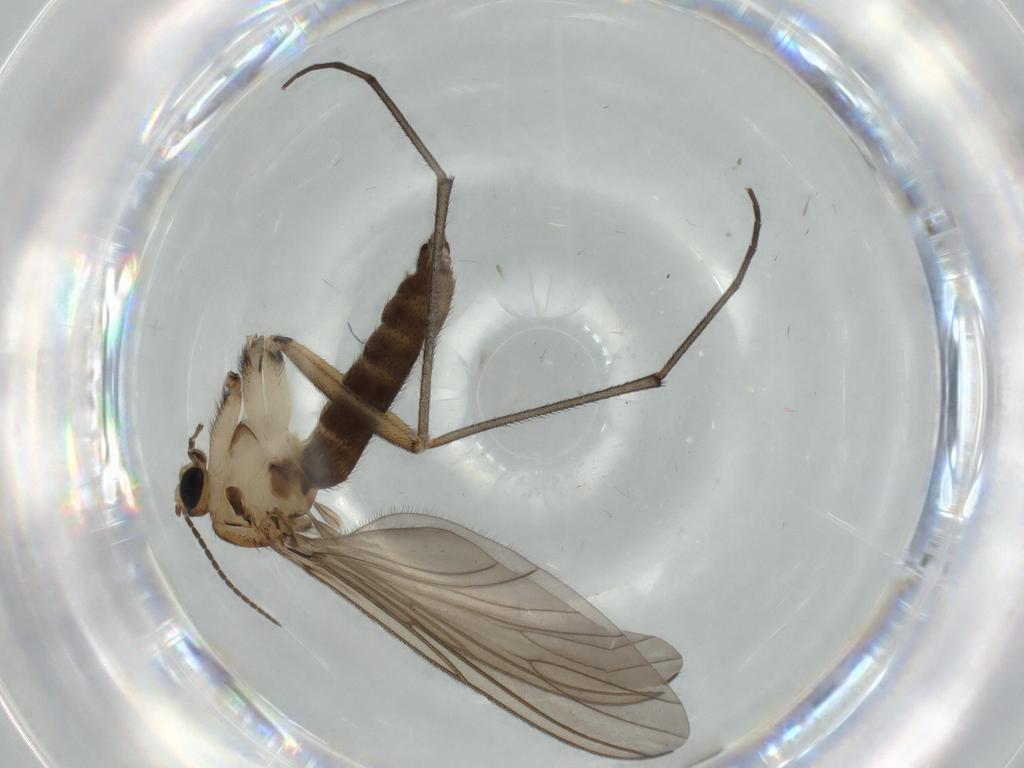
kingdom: Animalia
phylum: Arthropoda
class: Insecta
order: Diptera
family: Sciaridae
